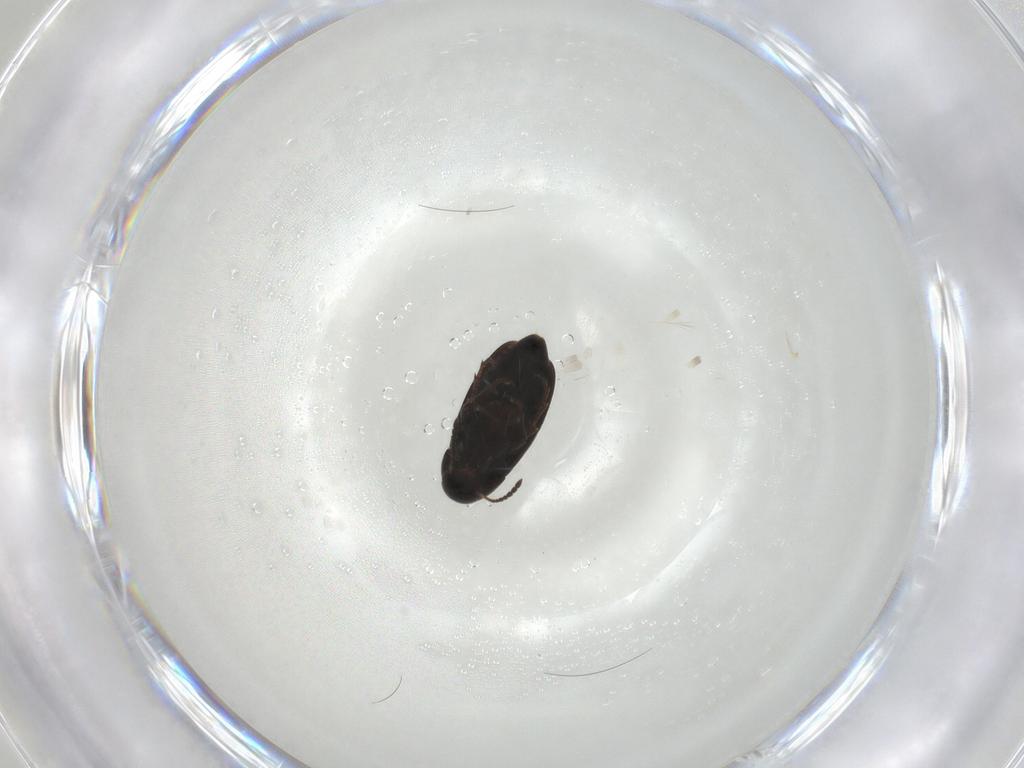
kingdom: Animalia
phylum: Arthropoda
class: Insecta
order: Coleoptera
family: Scraptiidae
